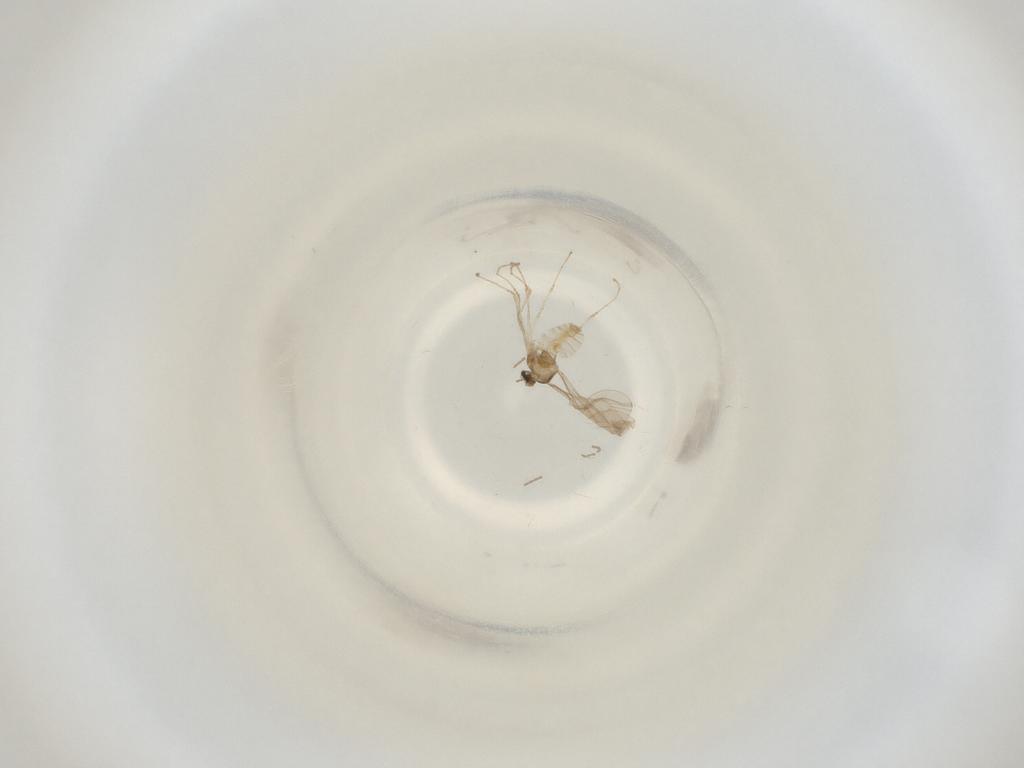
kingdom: Animalia
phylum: Arthropoda
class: Insecta
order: Diptera
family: Cecidomyiidae
